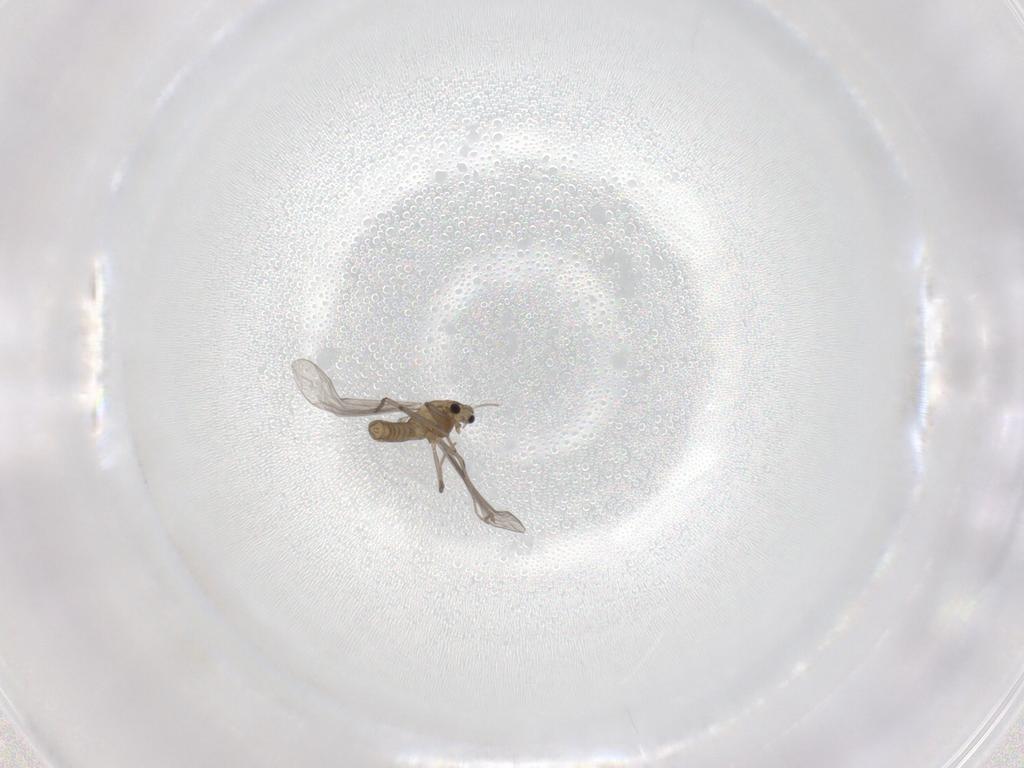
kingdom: Animalia
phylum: Arthropoda
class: Insecta
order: Diptera
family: Chironomidae
